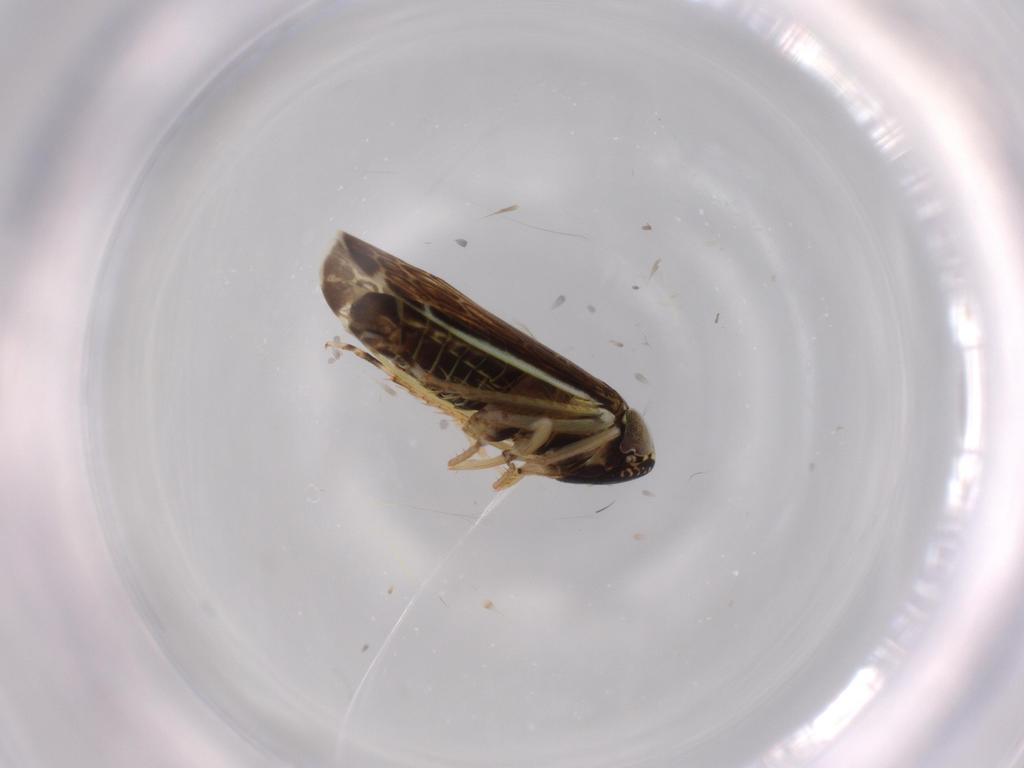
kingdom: Animalia
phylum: Arthropoda
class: Insecta
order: Hemiptera
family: Cicadellidae
